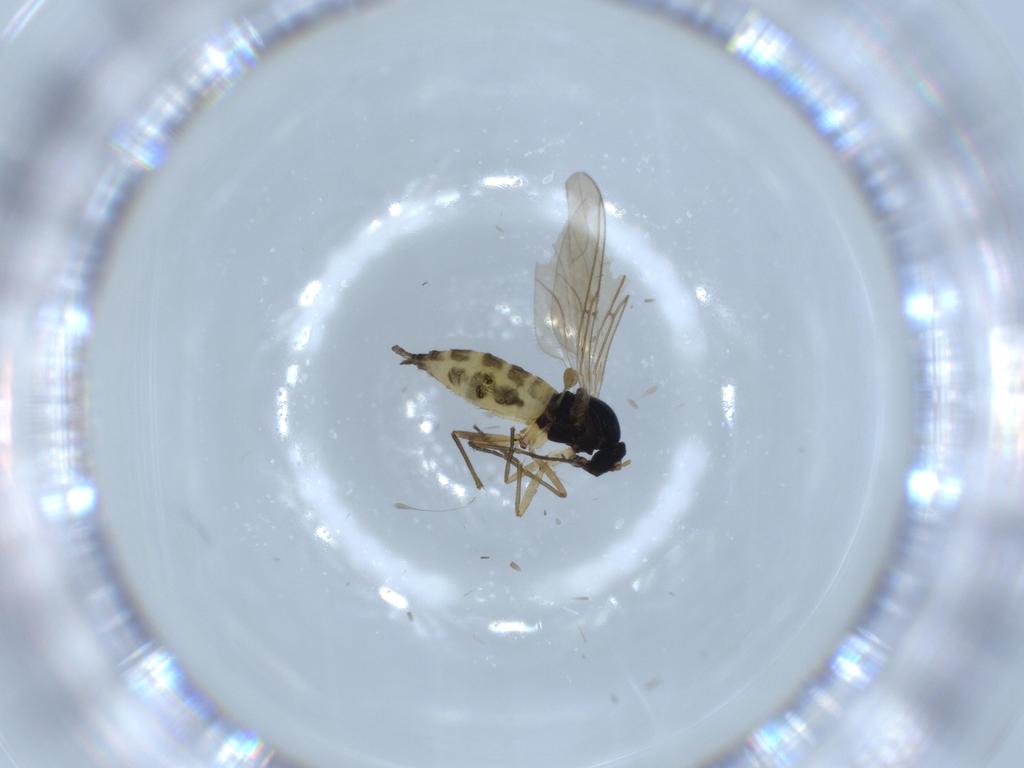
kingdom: Animalia
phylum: Arthropoda
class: Insecta
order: Diptera
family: Sciaridae
